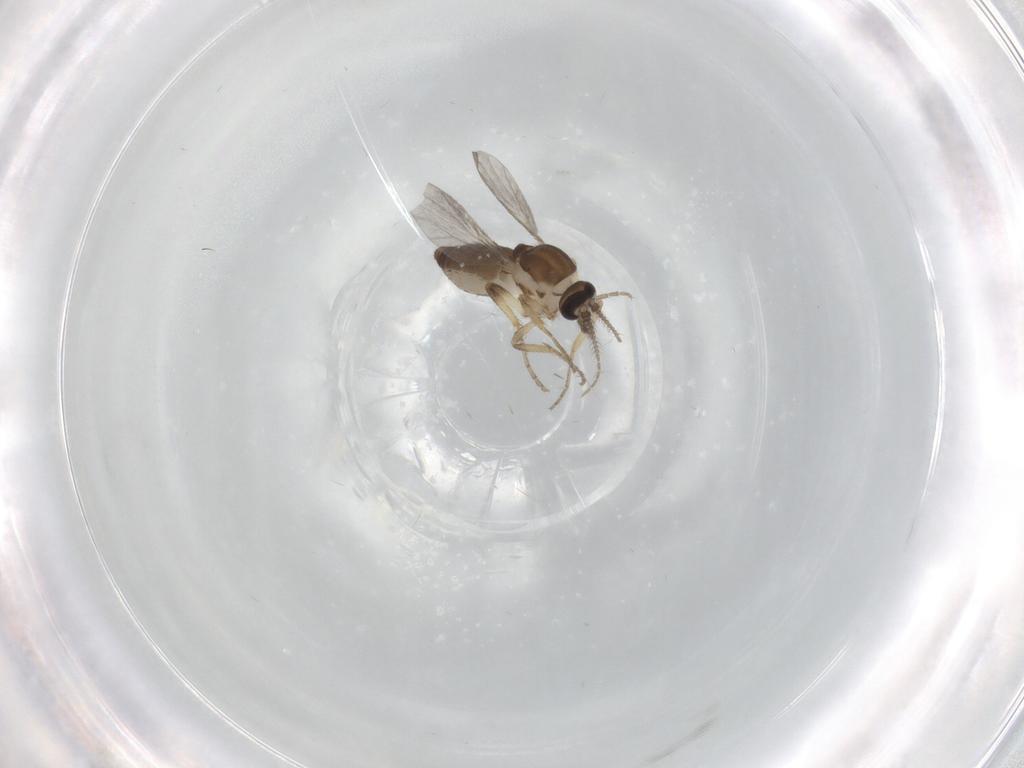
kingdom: Animalia
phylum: Arthropoda
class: Insecta
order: Diptera
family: Ceratopogonidae
